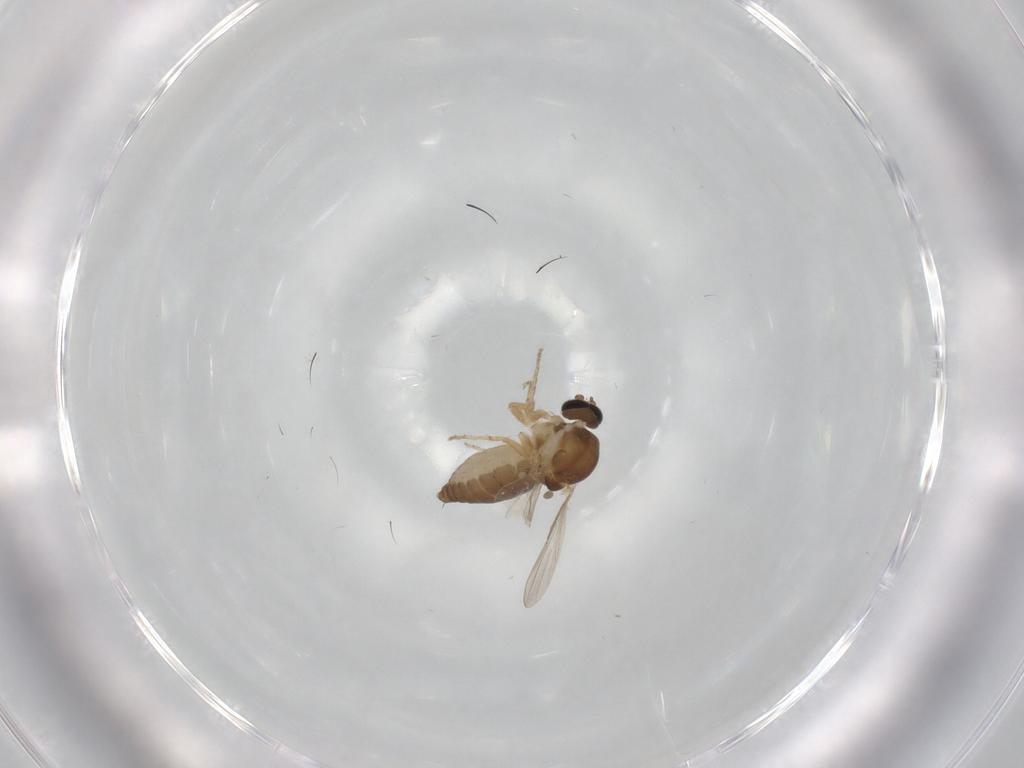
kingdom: Animalia
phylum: Arthropoda
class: Insecta
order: Diptera
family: Ceratopogonidae
